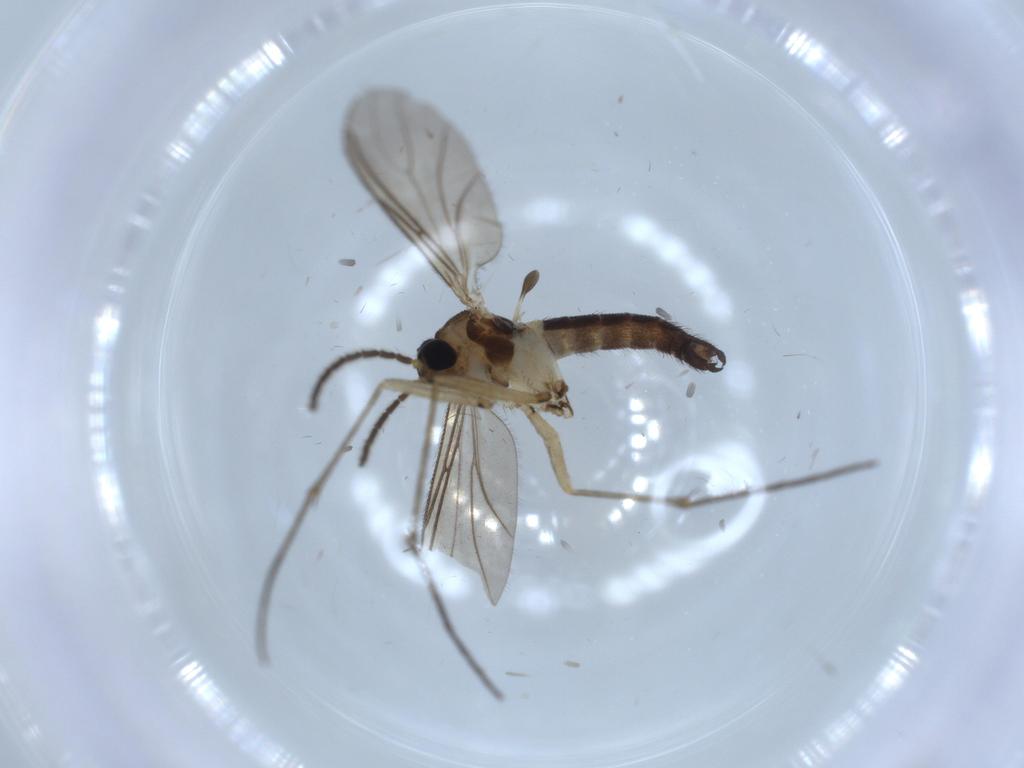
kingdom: Animalia
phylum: Arthropoda
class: Insecta
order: Diptera
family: Sciaridae
